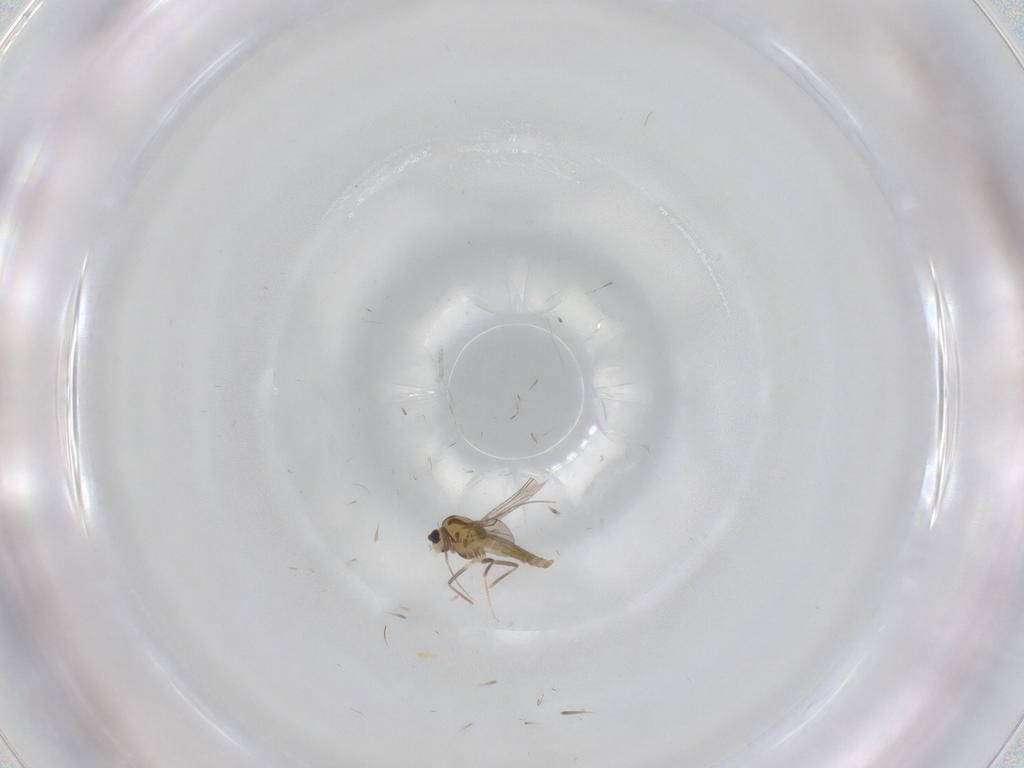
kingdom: Animalia
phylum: Arthropoda
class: Insecta
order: Diptera
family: Chironomidae
